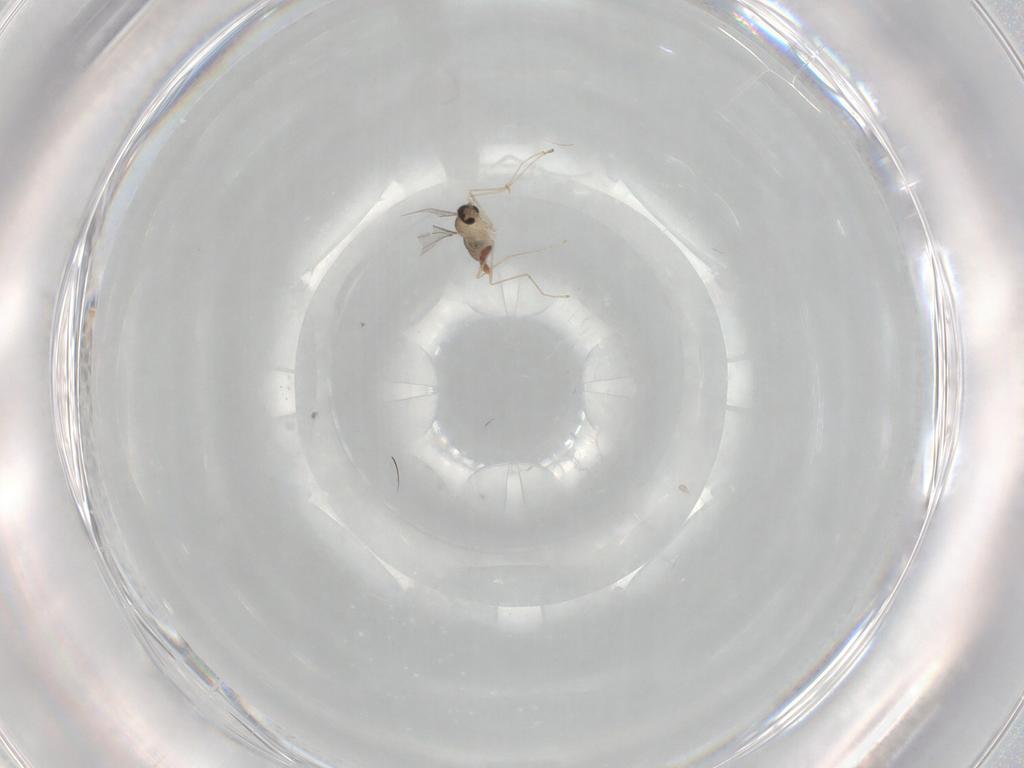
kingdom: Animalia
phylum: Arthropoda
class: Insecta
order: Diptera
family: Cecidomyiidae
